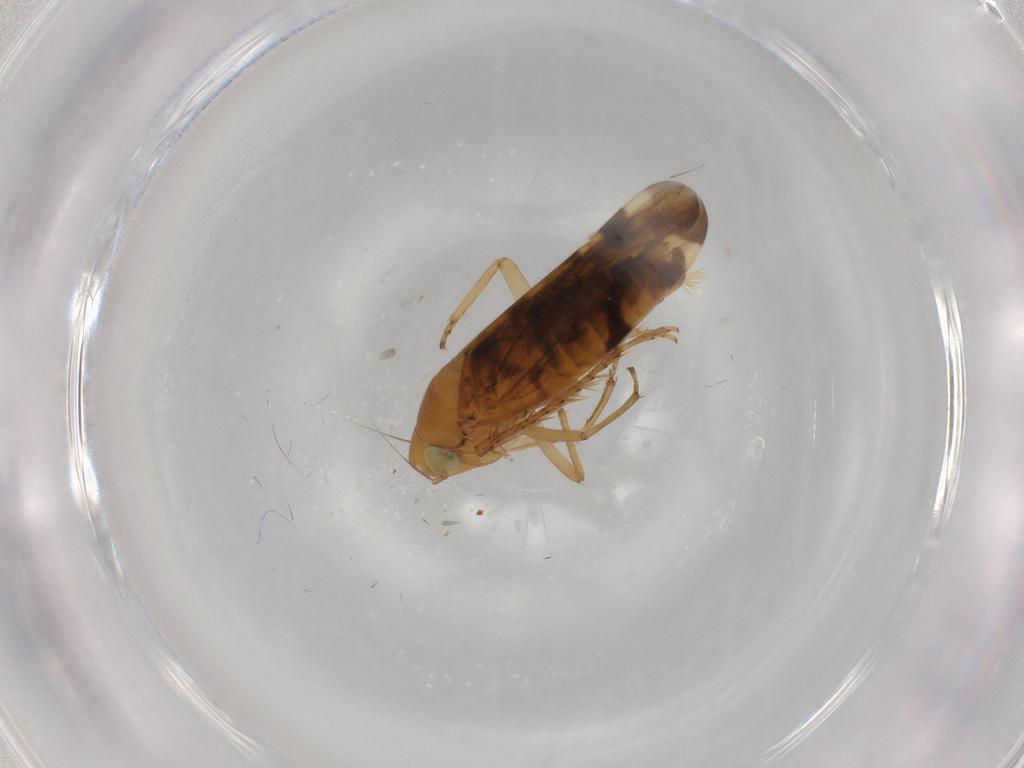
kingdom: Animalia
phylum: Arthropoda
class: Insecta
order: Hemiptera
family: Cicadellidae
